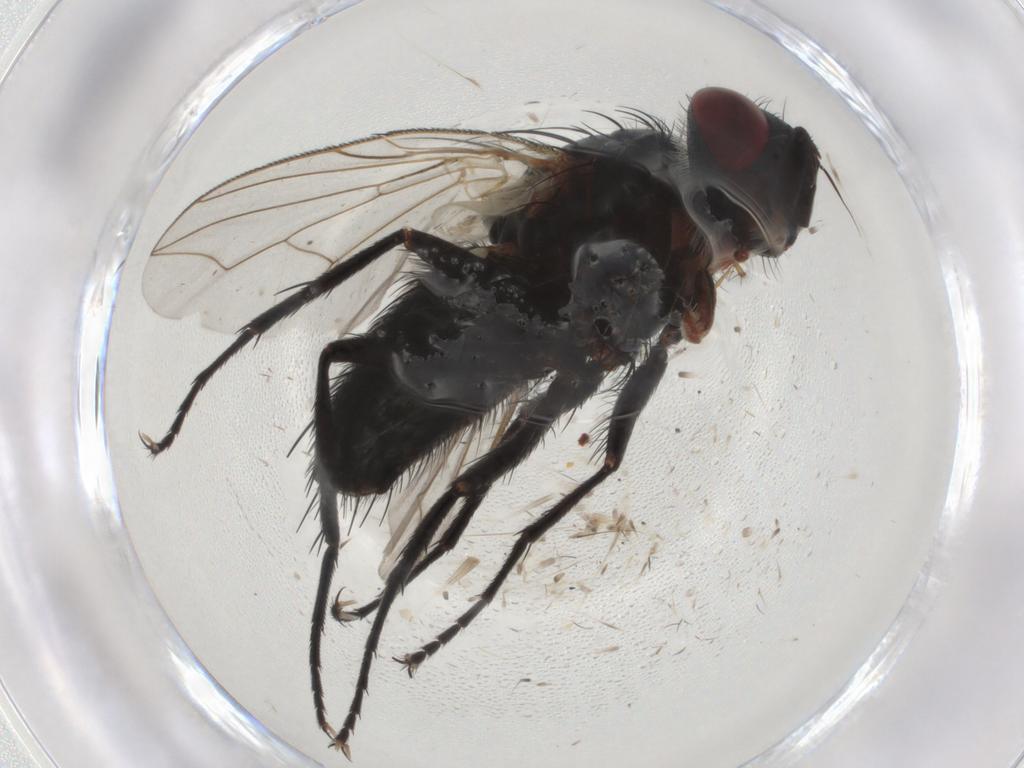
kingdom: Animalia
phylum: Arthropoda
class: Insecta
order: Diptera
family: Tachinidae
